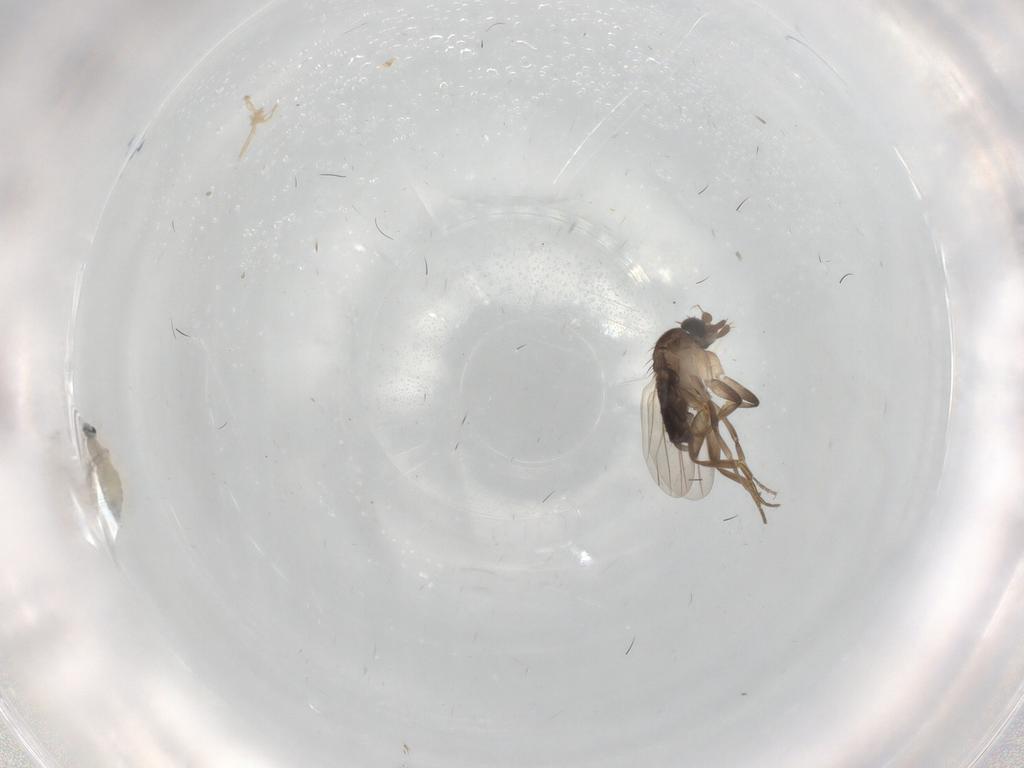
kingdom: Animalia
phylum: Arthropoda
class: Insecta
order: Diptera
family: Cecidomyiidae
